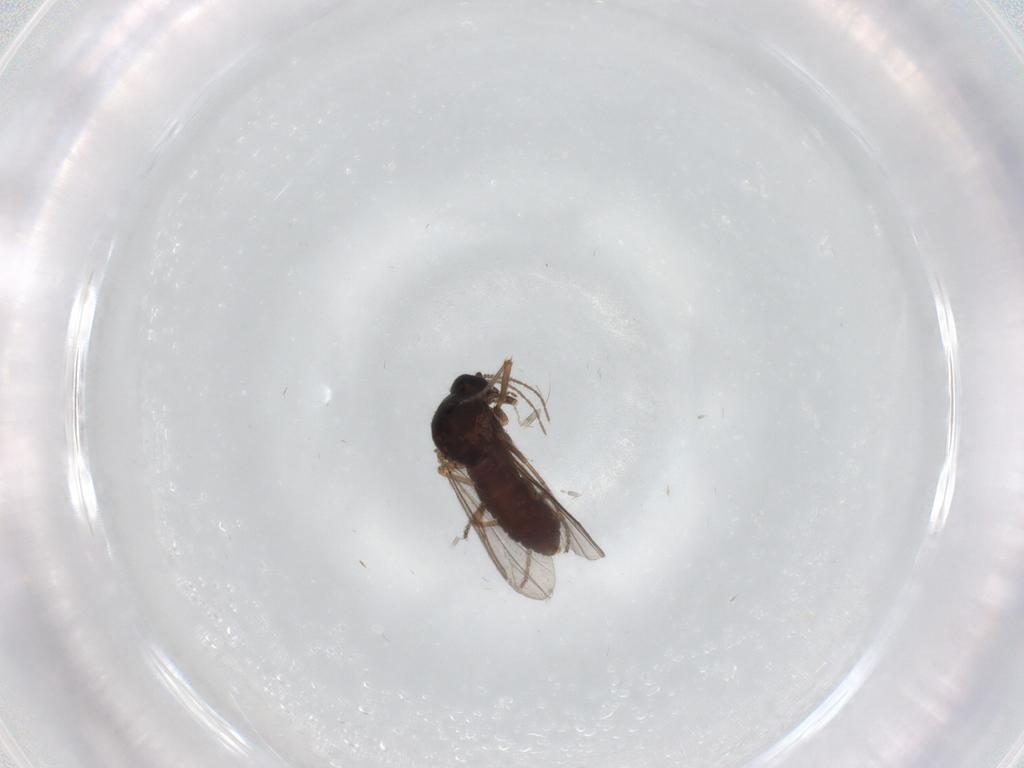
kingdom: Animalia
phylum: Arthropoda
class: Insecta
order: Diptera
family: Ceratopogonidae
